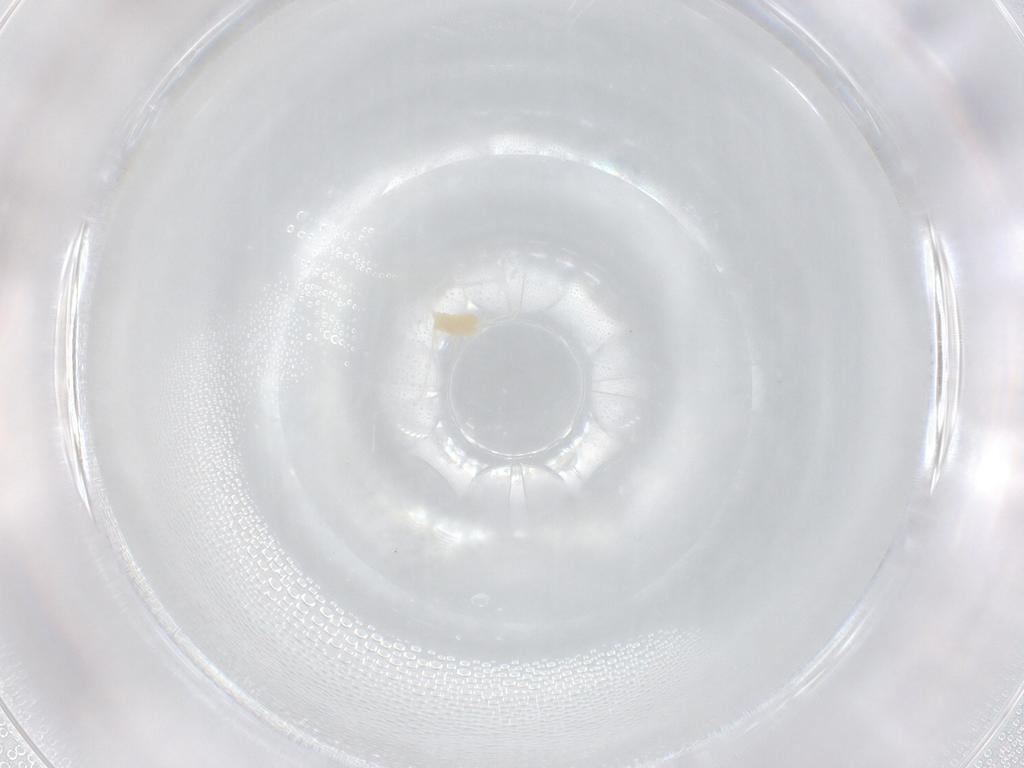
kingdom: Animalia
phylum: Arthropoda
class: Arachnida
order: Trombidiformes
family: Tetranychidae
